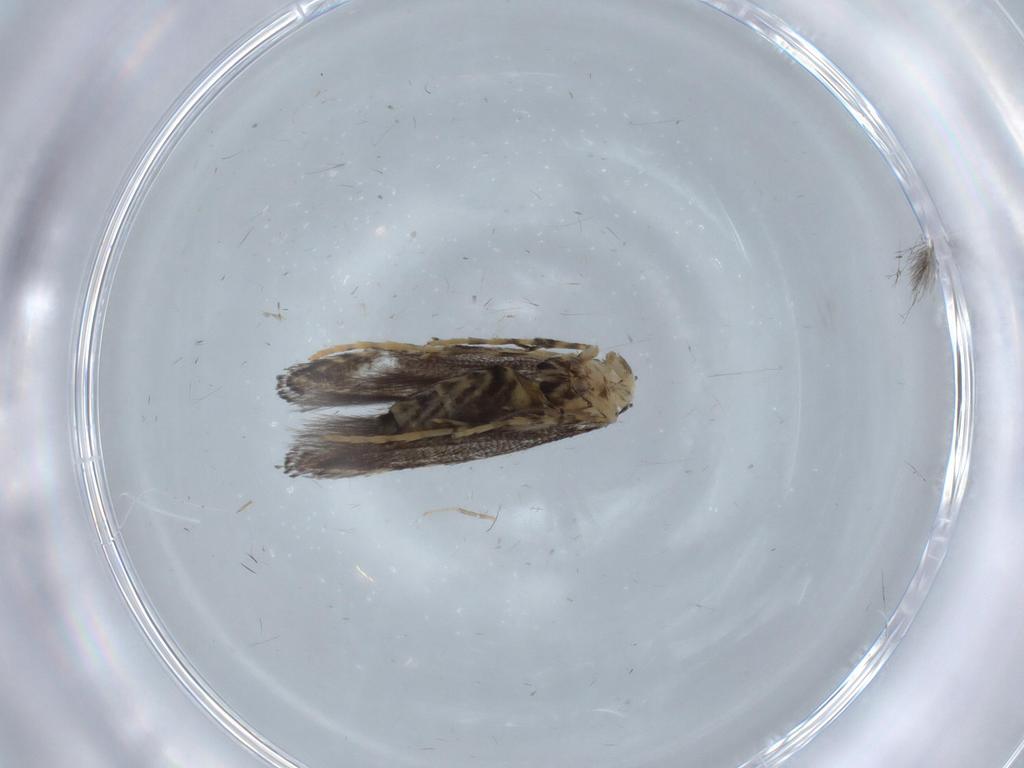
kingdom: Animalia
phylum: Arthropoda
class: Insecta
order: Lepidoptera
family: Gracillariidae
